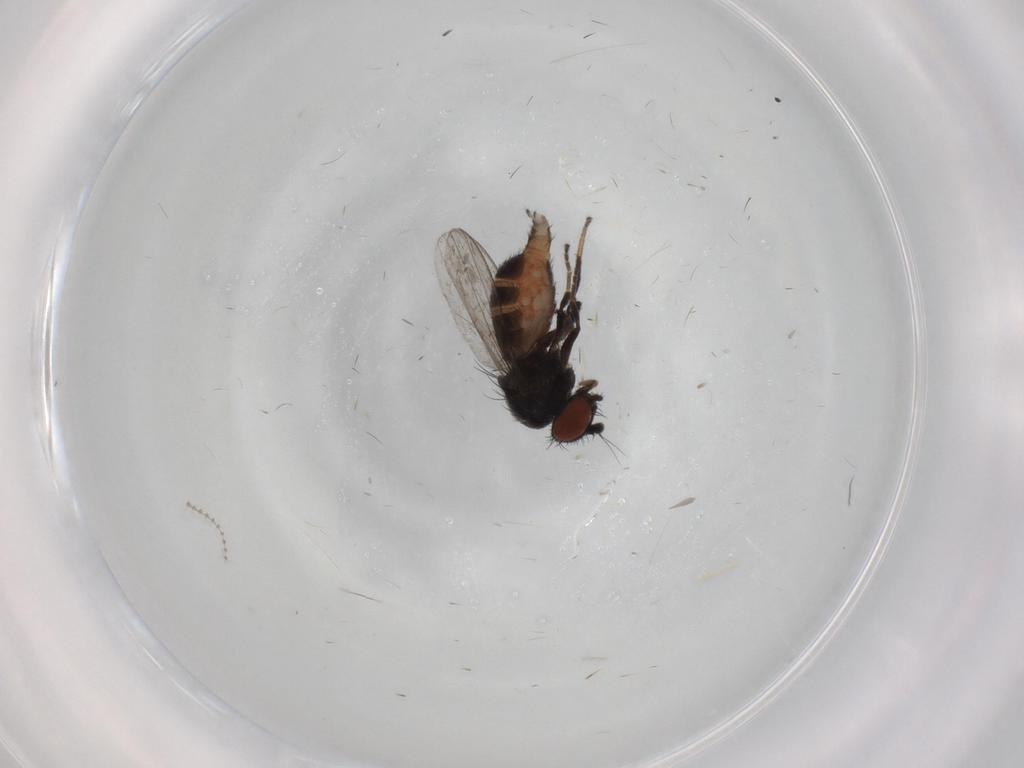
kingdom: Animalia
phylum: Arthropoda
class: Insecta
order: Diptera
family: Milichiidae
